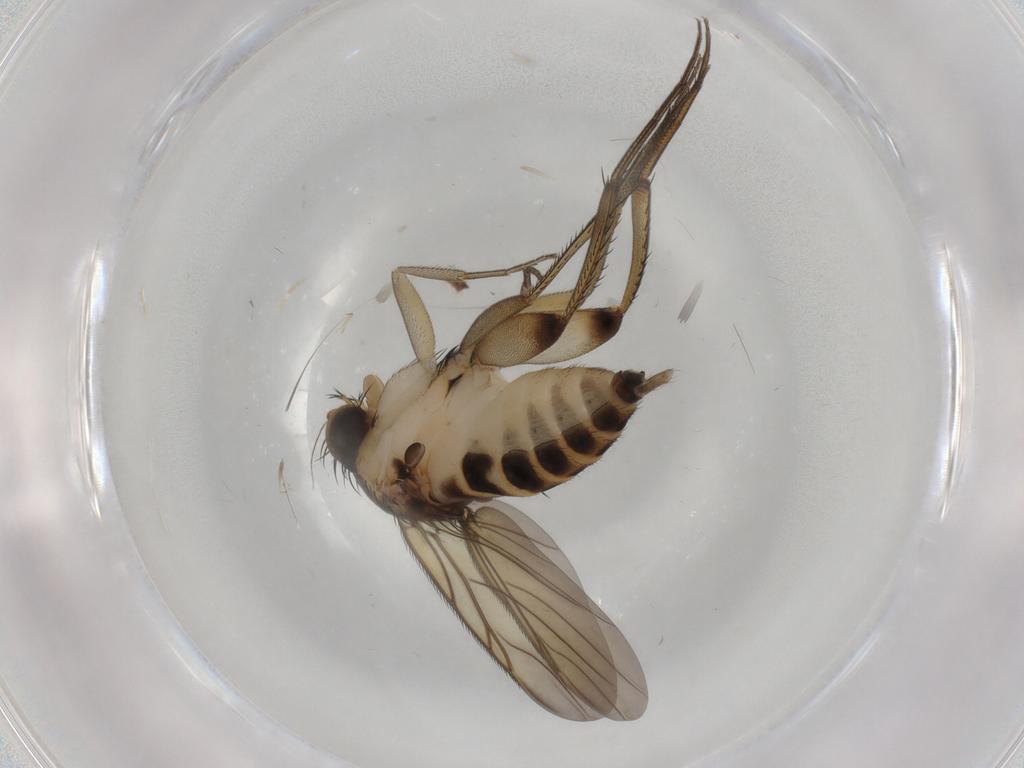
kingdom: Animalia
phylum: Arthropoda
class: Insecta
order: Diptera
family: Phoridae
